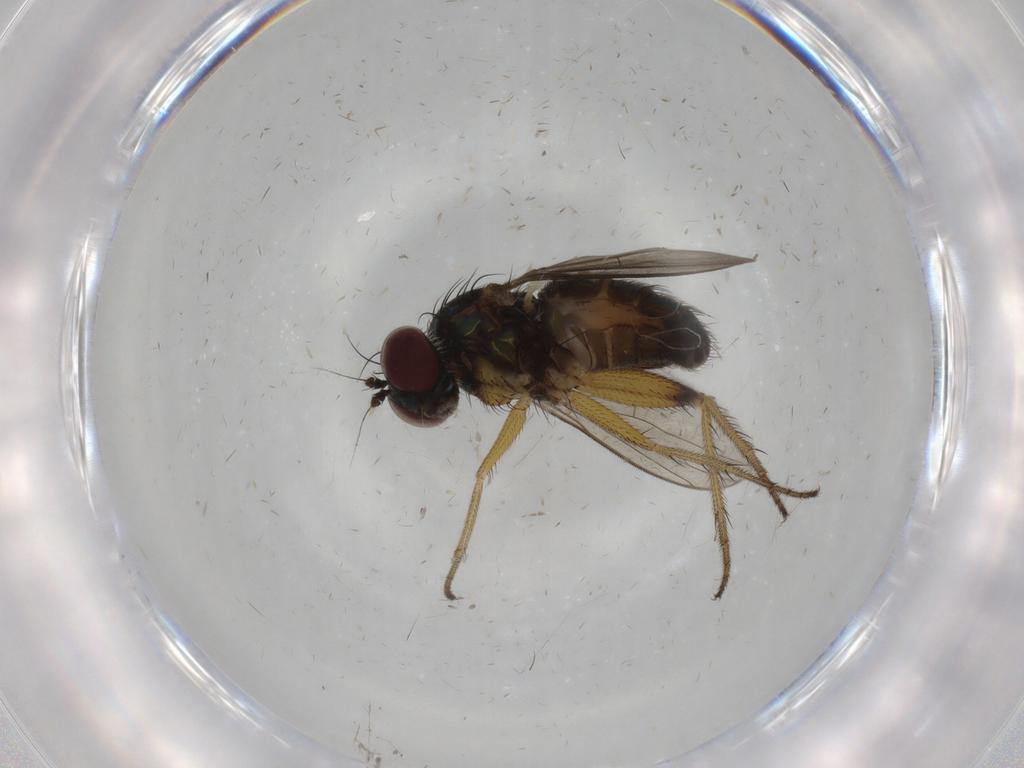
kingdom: Animalia
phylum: Arthropoda
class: Insecta
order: Diptera
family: Dolichopodidae
